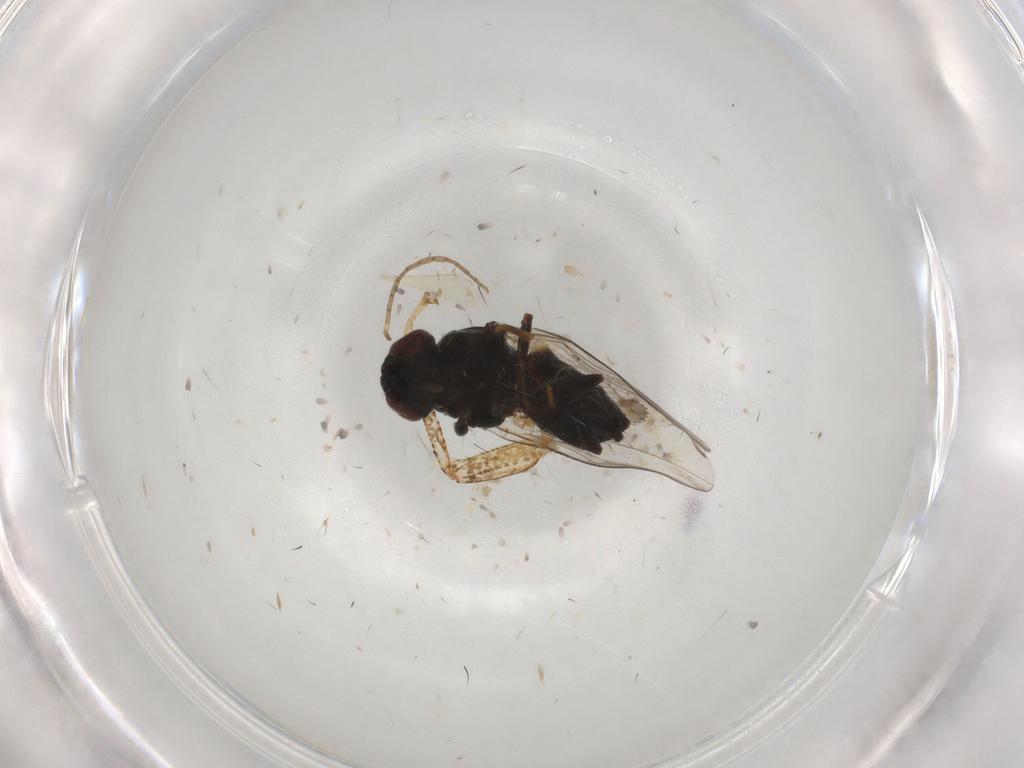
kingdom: Animalia
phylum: Arthropoda
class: Insecta
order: Diptera
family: Chloropidae
